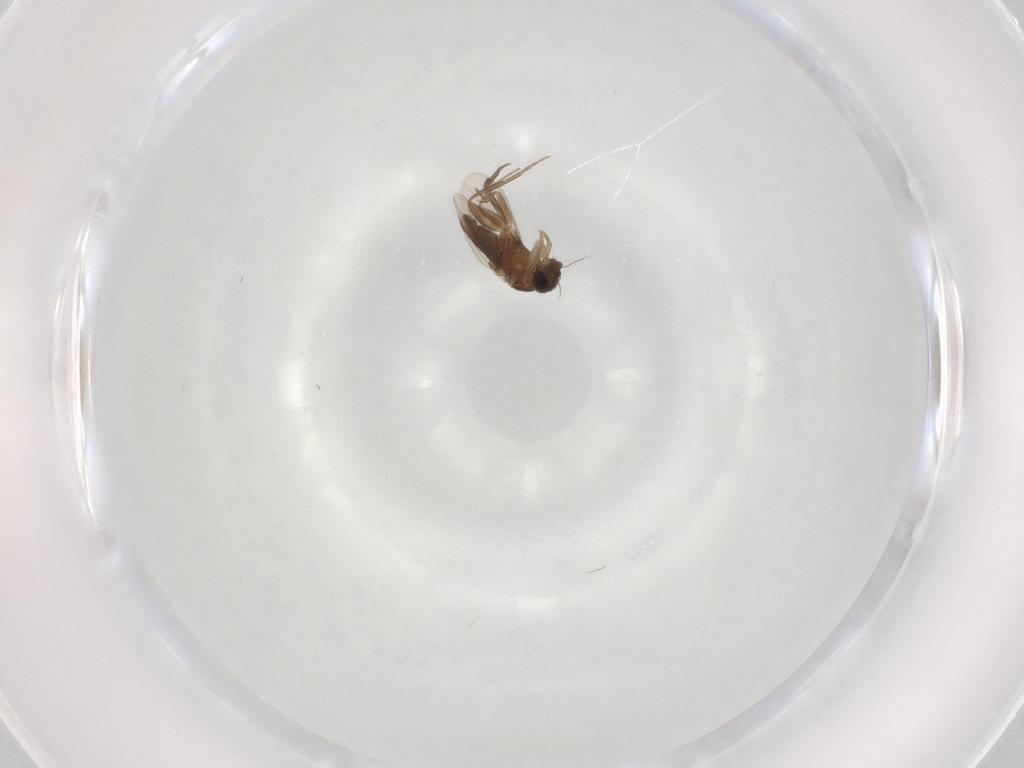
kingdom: Animalia
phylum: Arthropoda
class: Insecta
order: Diptera
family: Phoridae
